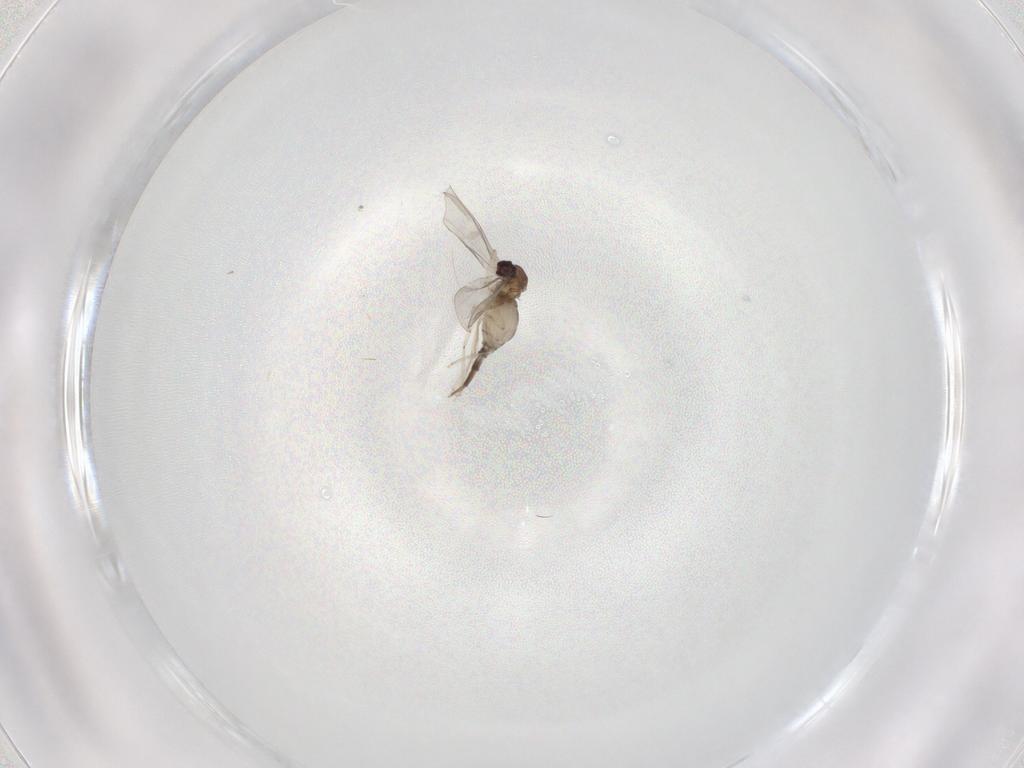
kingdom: Animalia
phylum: Arthropoda
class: Insecta
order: Diptera
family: Cecidomyiidae
